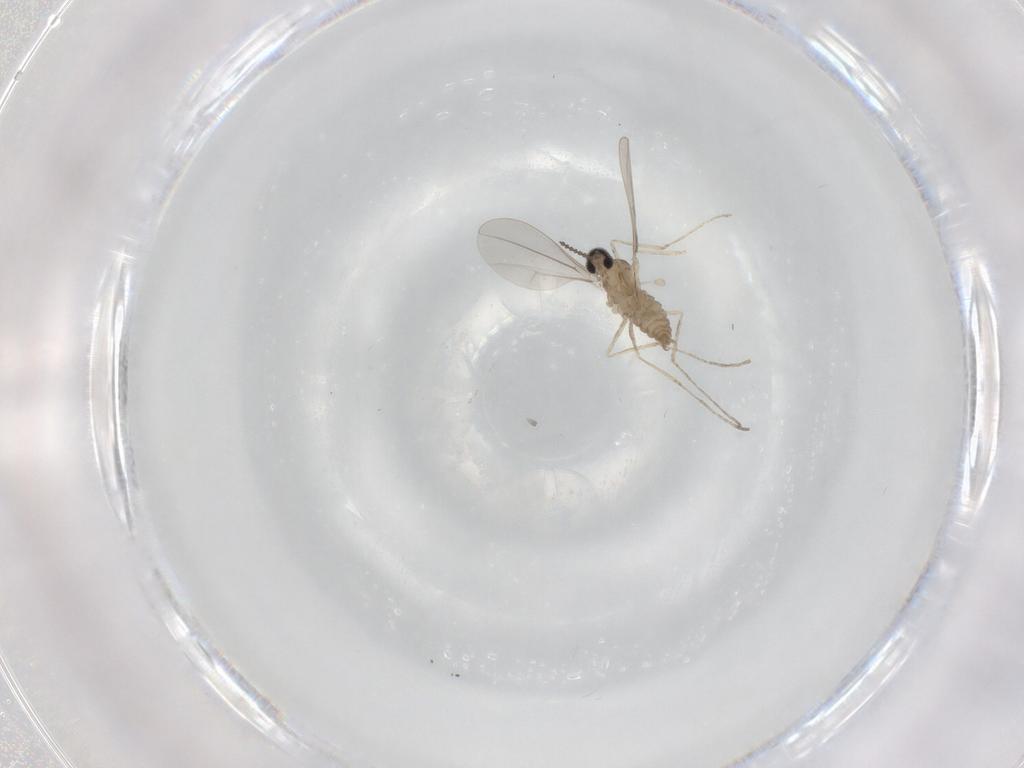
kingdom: Animalia
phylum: Arthropoda
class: Insecta
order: Diptera
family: Cecidomyiidae
